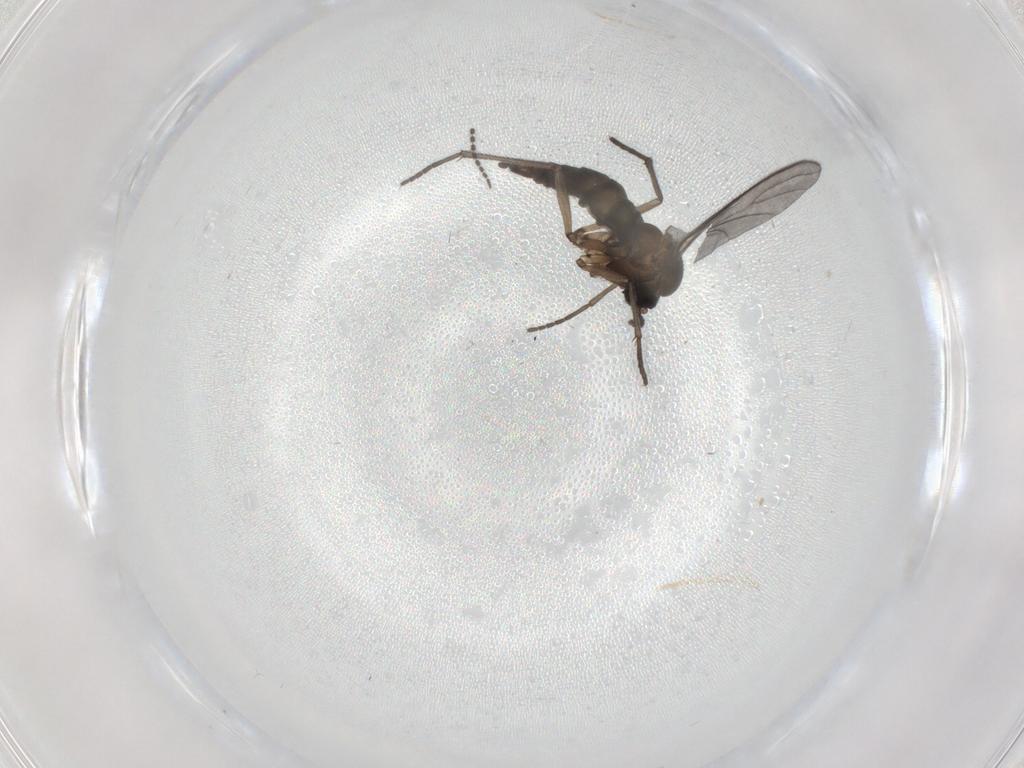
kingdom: Animalia
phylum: Arthropoda
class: Insecta
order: Diptera
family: Sciaridae
